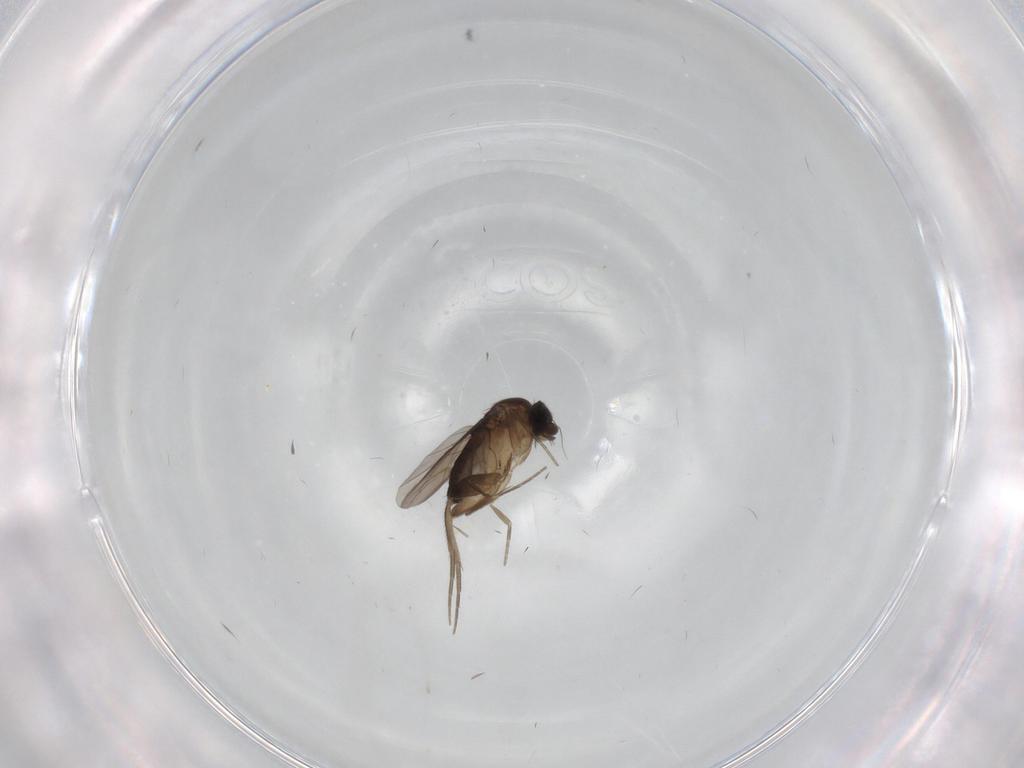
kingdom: Animalia
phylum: Arthropoda
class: Insecta
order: Diptera
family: Phoridae
